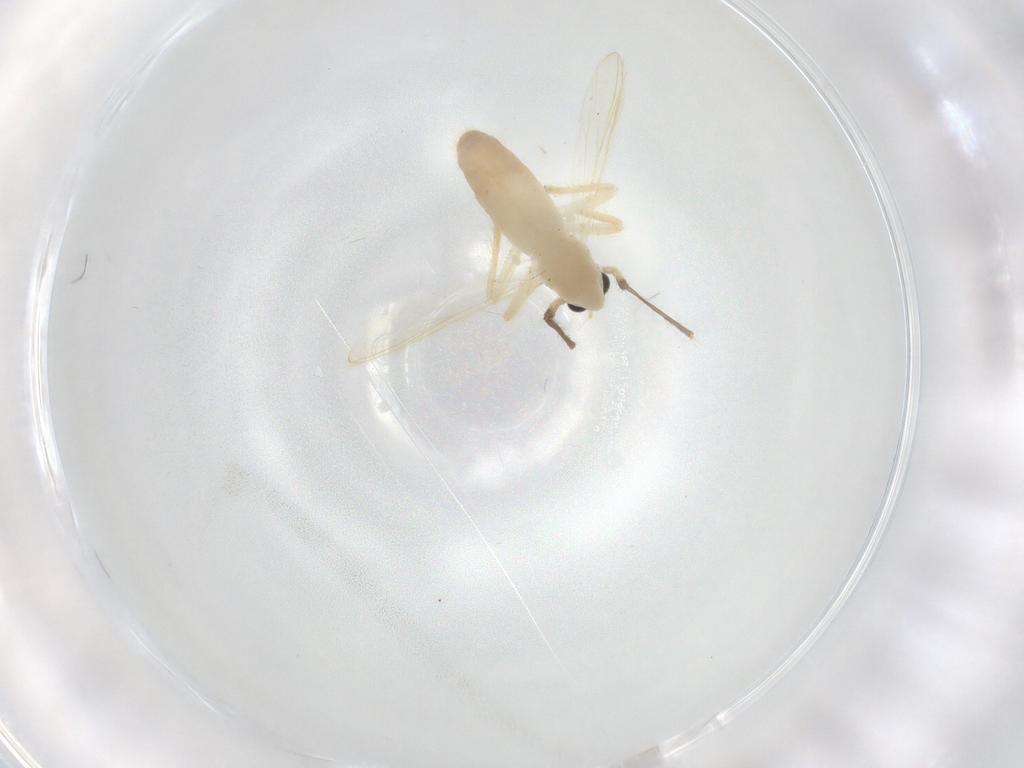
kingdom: Animalia
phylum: Arthropoda
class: Insecta
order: Diptera
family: Chironomidae
